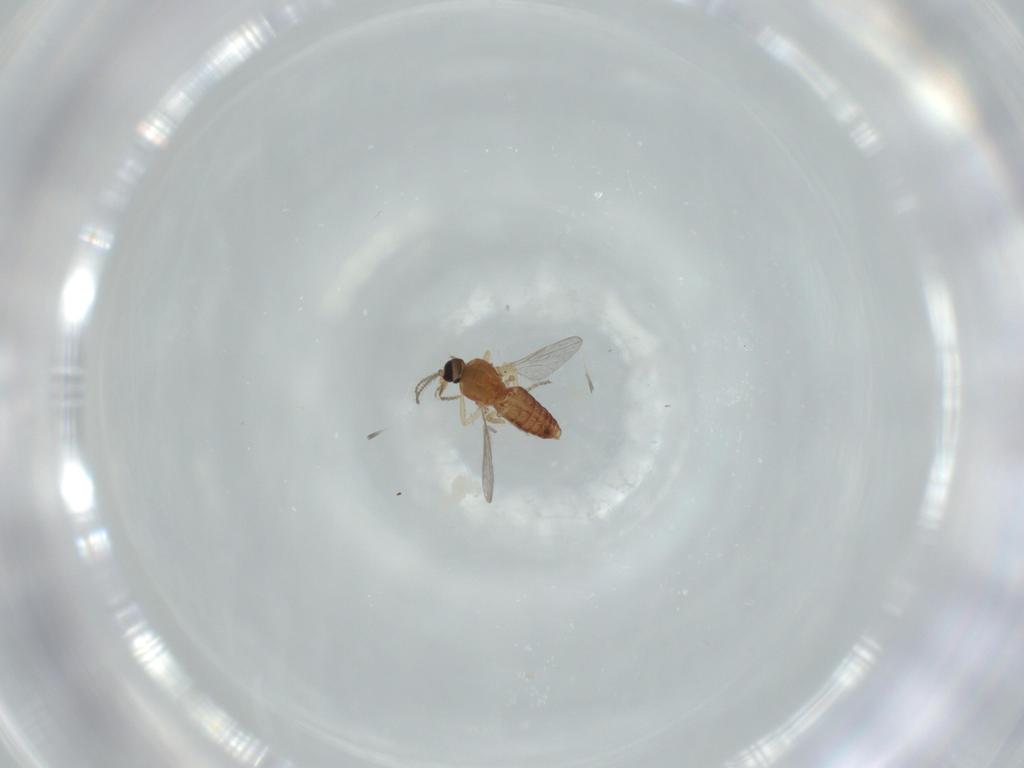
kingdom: Animalia
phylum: Arthropoda
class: Insecta
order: Diptera
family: Ceratopogonidae
